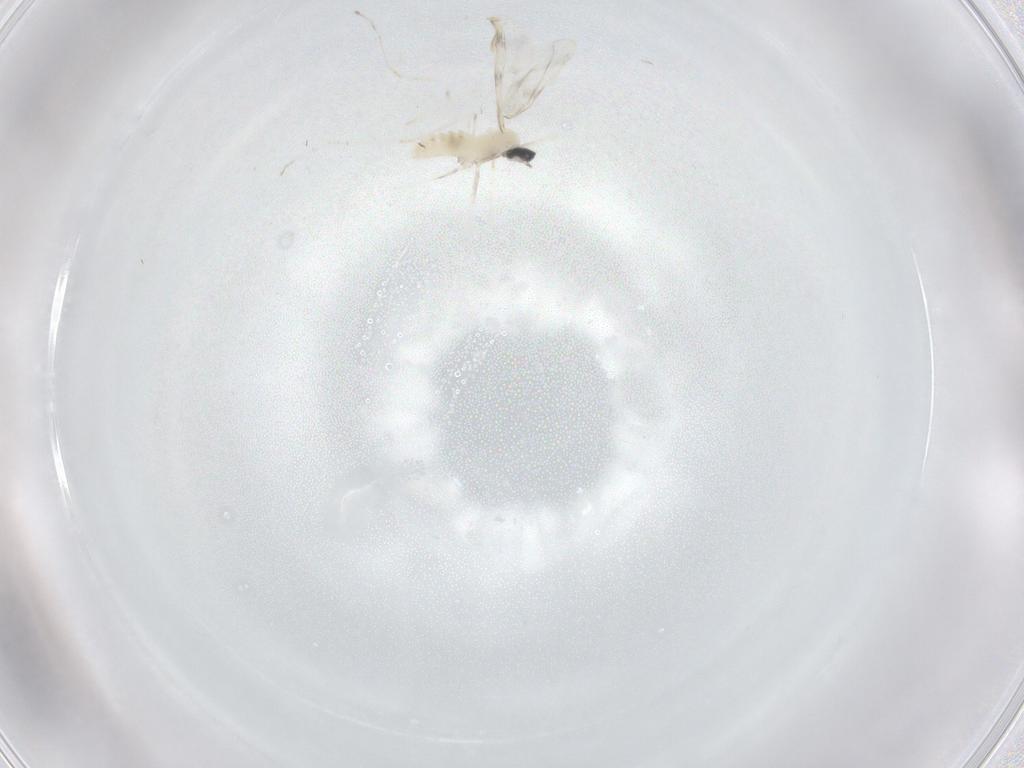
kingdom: Animalia
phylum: Arthropoda
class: Insecta
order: Diptera
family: Cecidomyiidae
